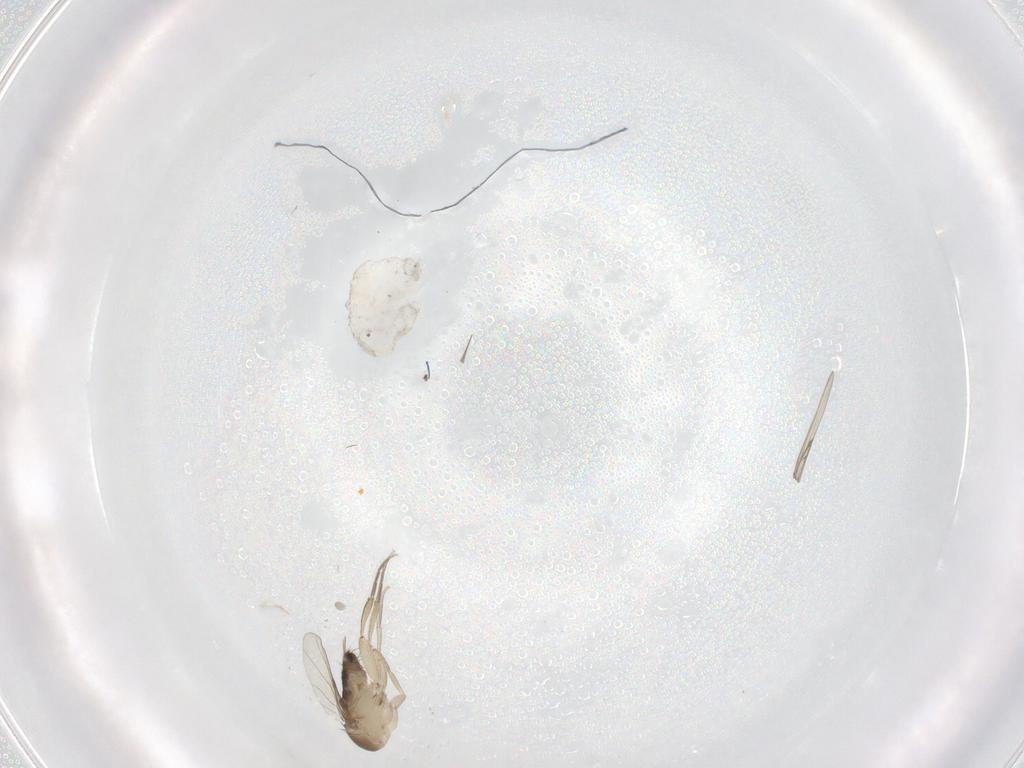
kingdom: Animalia
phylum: Arthropoda
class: Insecta
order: Diptera
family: Phoridae
